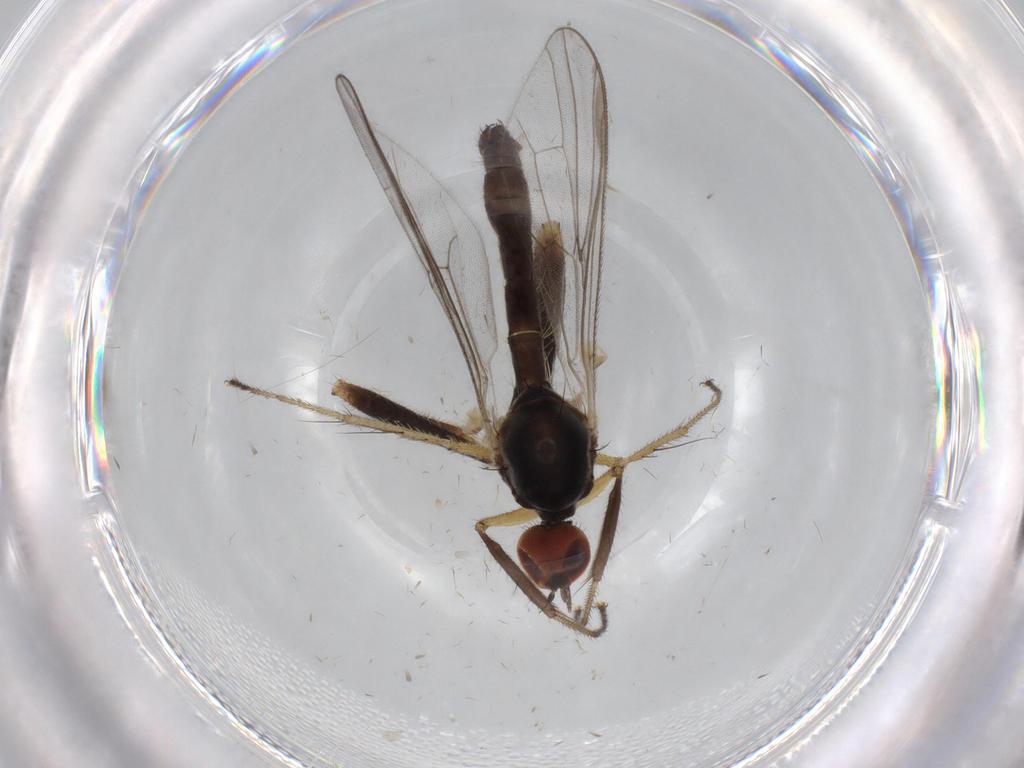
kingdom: Animalia
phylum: Arthropoda
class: Insecta
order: Diptera
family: Hybotidae
